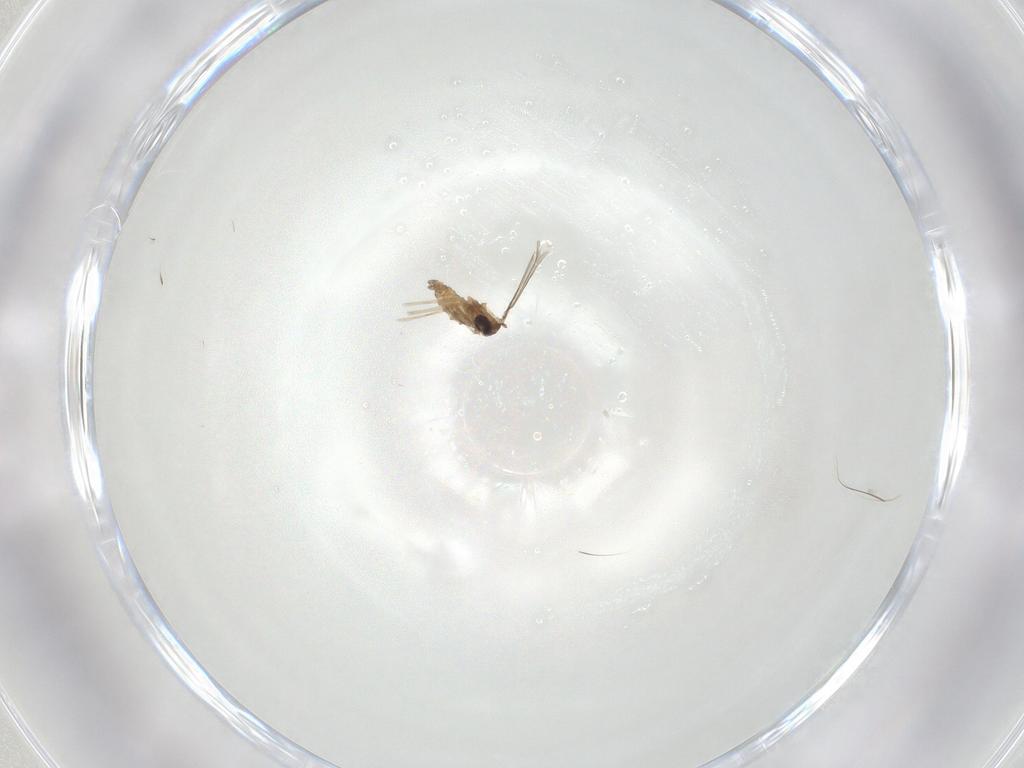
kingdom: Animalia
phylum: Arthropoda
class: Insecta
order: Diptera
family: Cecidomyiidae
